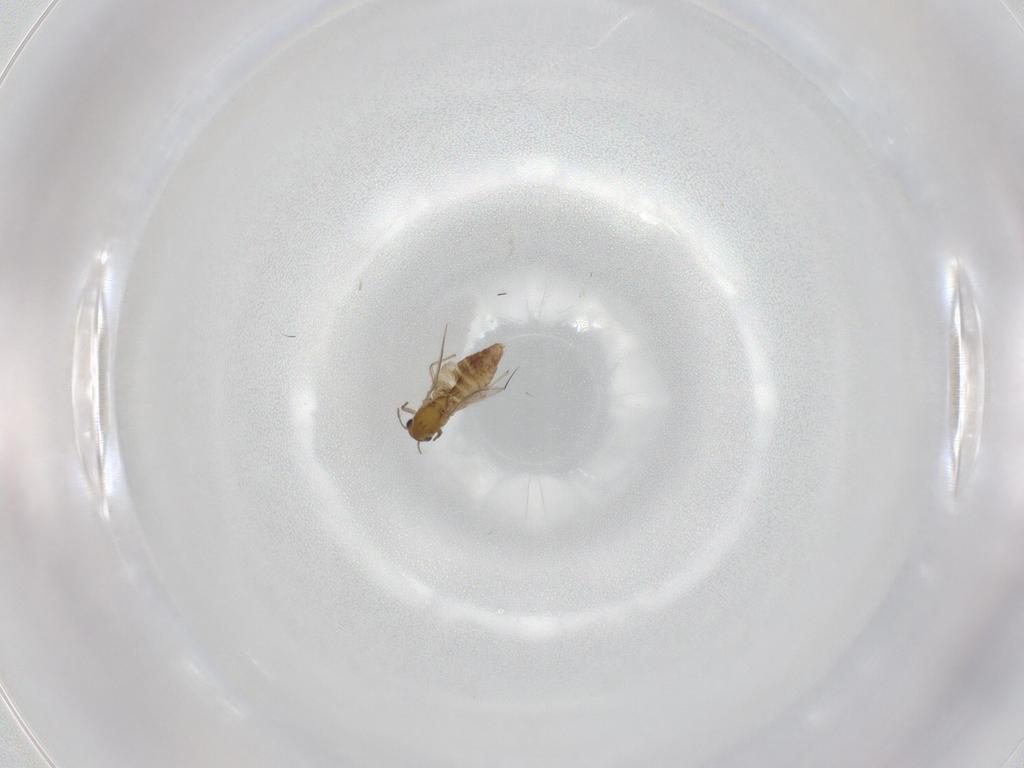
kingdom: Animalia
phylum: Arthropoda
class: Insecta
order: Diptera
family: Chironomidae
